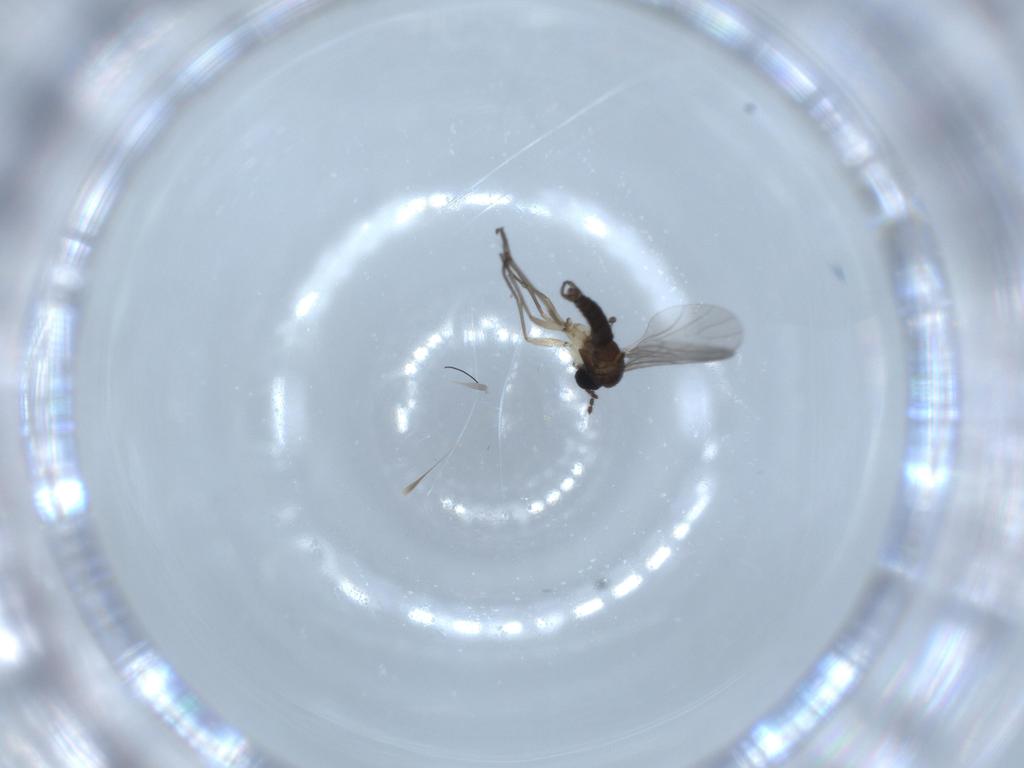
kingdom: Animalia
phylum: Arthropoda
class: Insecta
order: Diptera
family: Sciaridae
